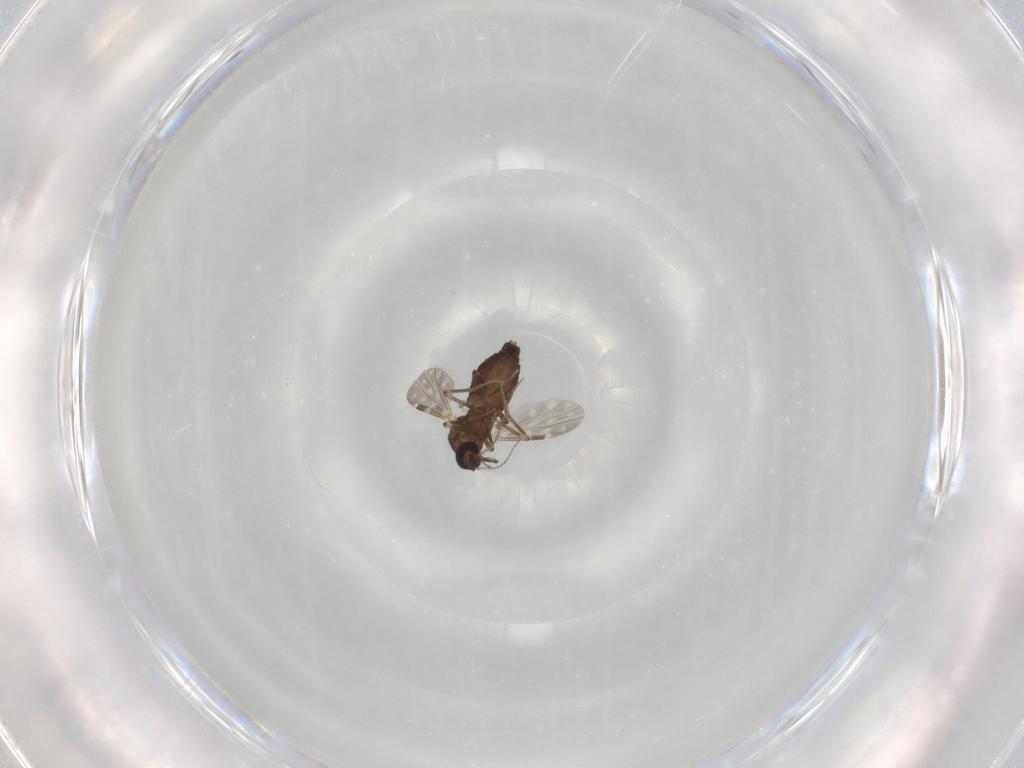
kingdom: Animalia
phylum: Arthropoda
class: Insecta
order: Diptera
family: Ceratopogonidae
